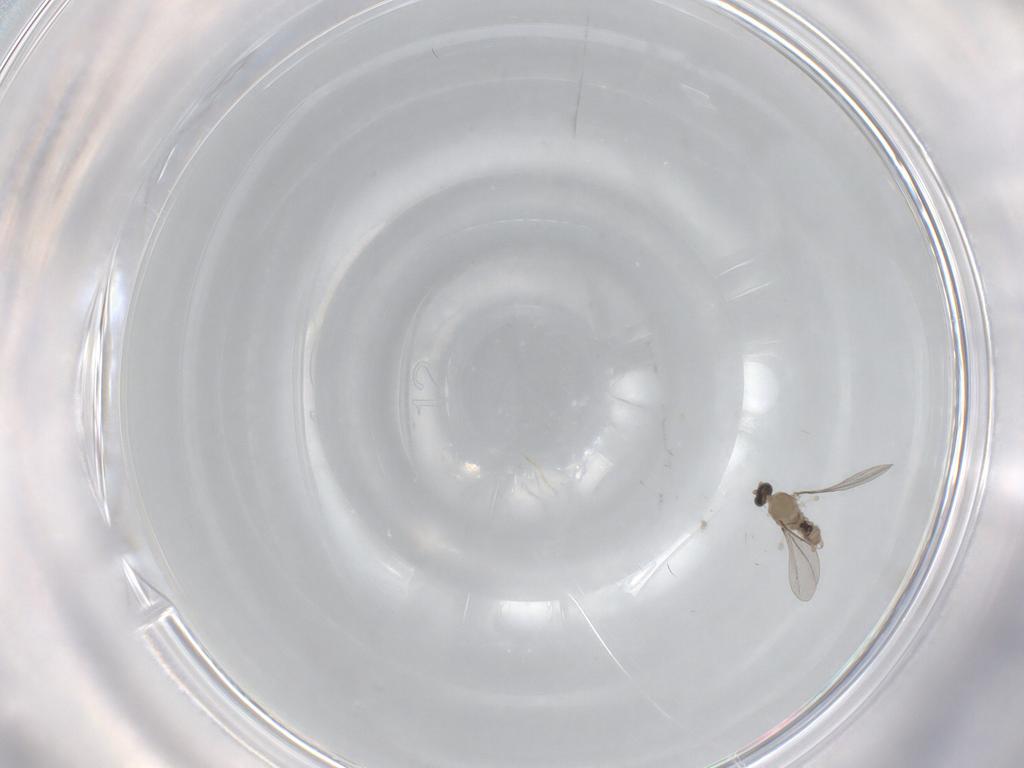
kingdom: Animalia
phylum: Arthropoda
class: Insecta
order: Diptera
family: Cecidomyiidae
